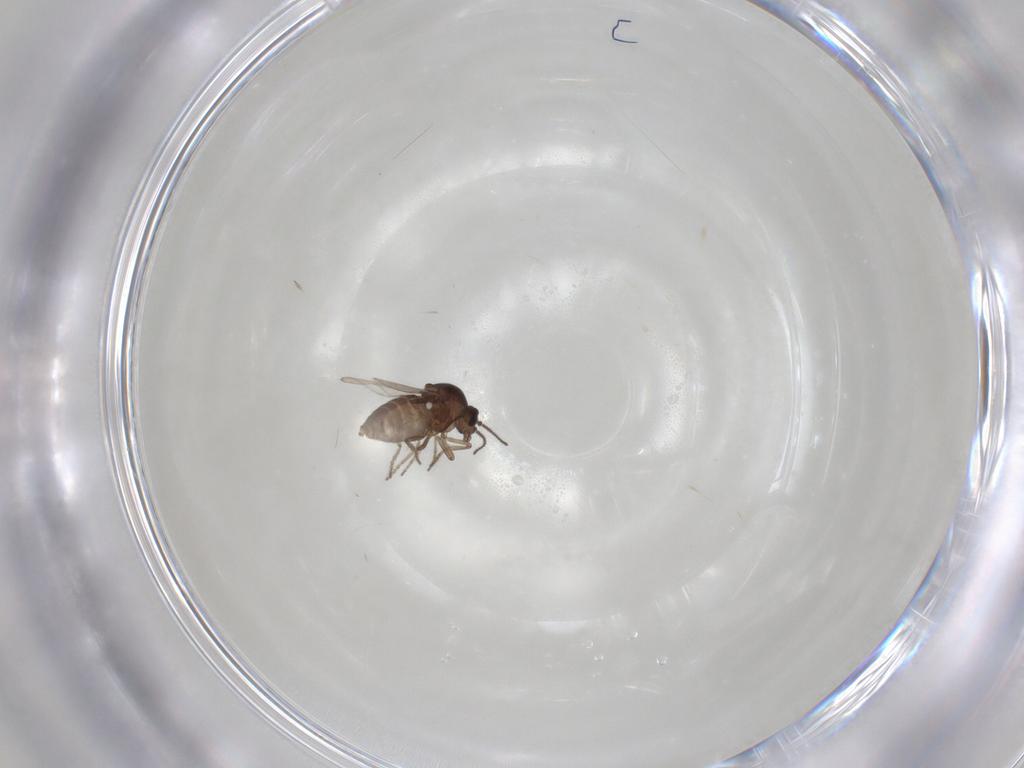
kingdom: Animalia
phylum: Arthropoda
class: Insecta
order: Diptera
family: Ceratopogonidae
